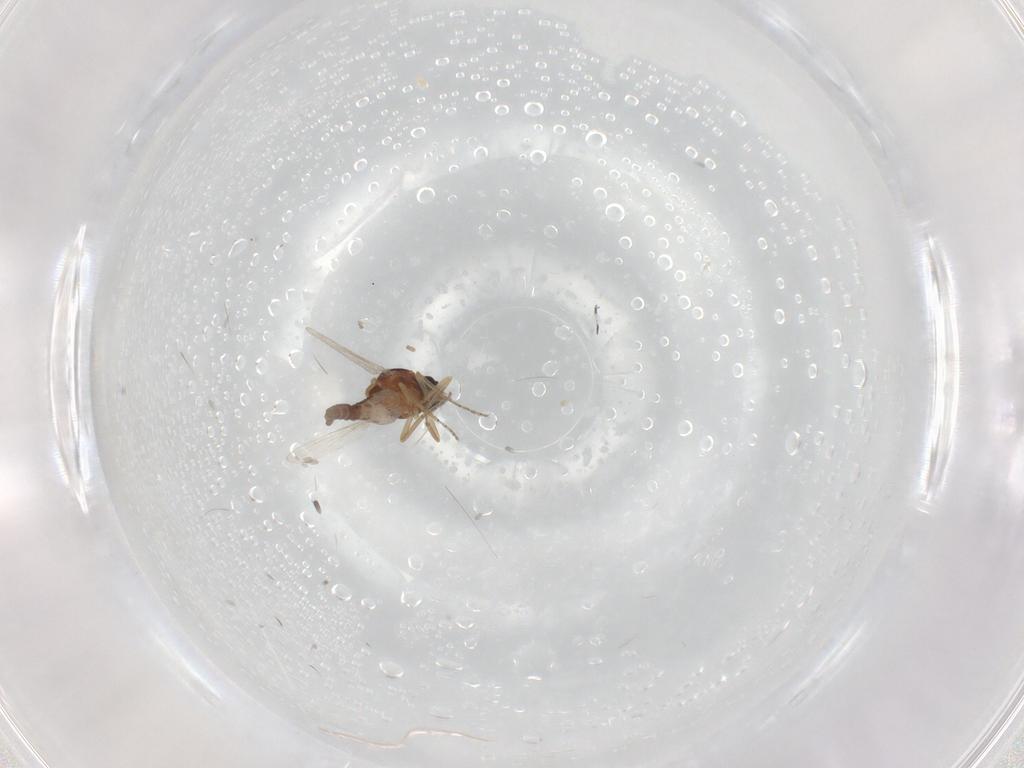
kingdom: Animalia
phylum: Arthropoda
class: Insecta
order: Diptera
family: Ceratopogonidae
